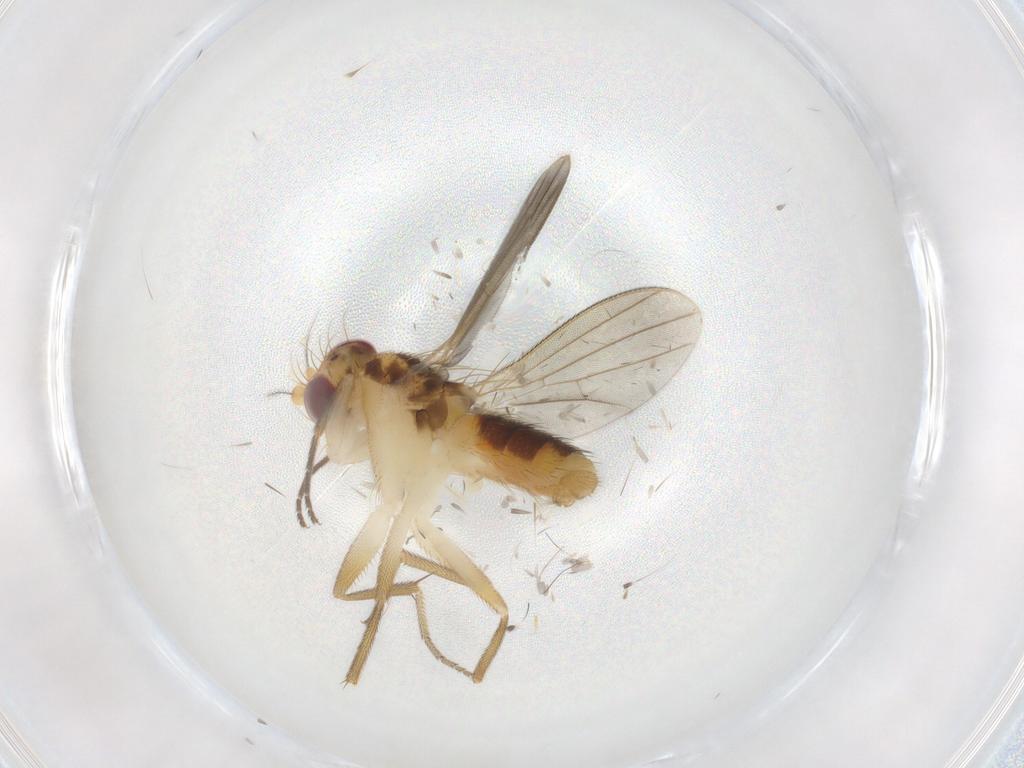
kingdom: Animalia
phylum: Arthropoda
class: Insecta
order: Diptera
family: Agromyzidae
